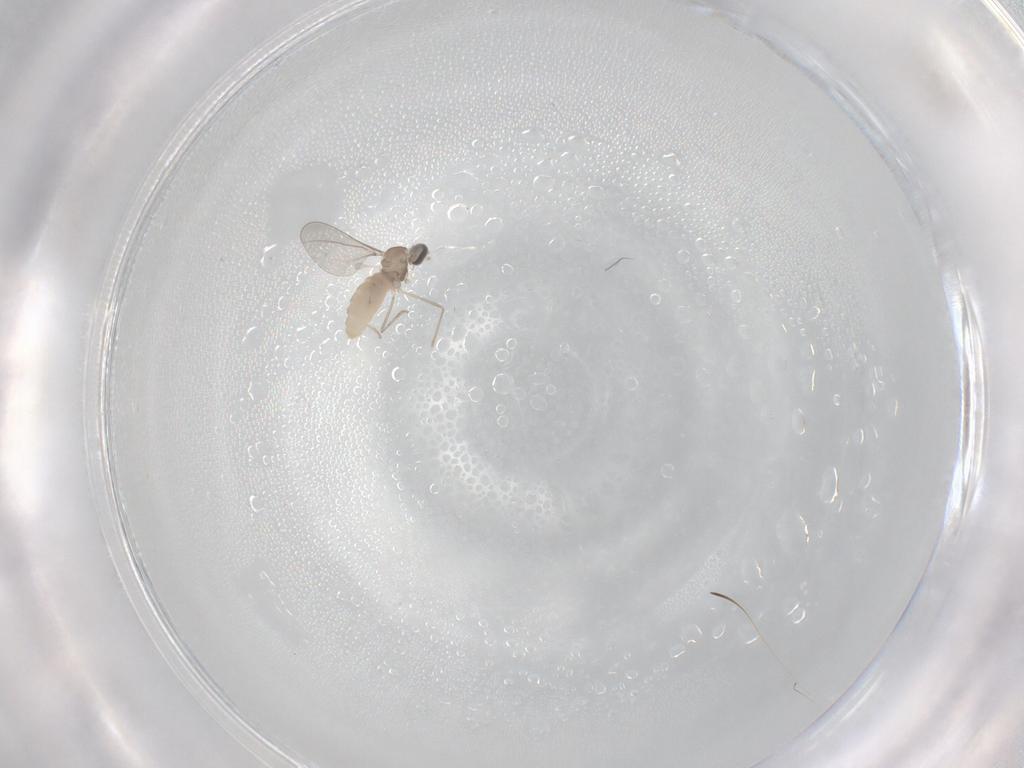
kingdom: Animalia
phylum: Arthropoda
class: Insecta
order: Diptera
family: Cecidomyiidae
